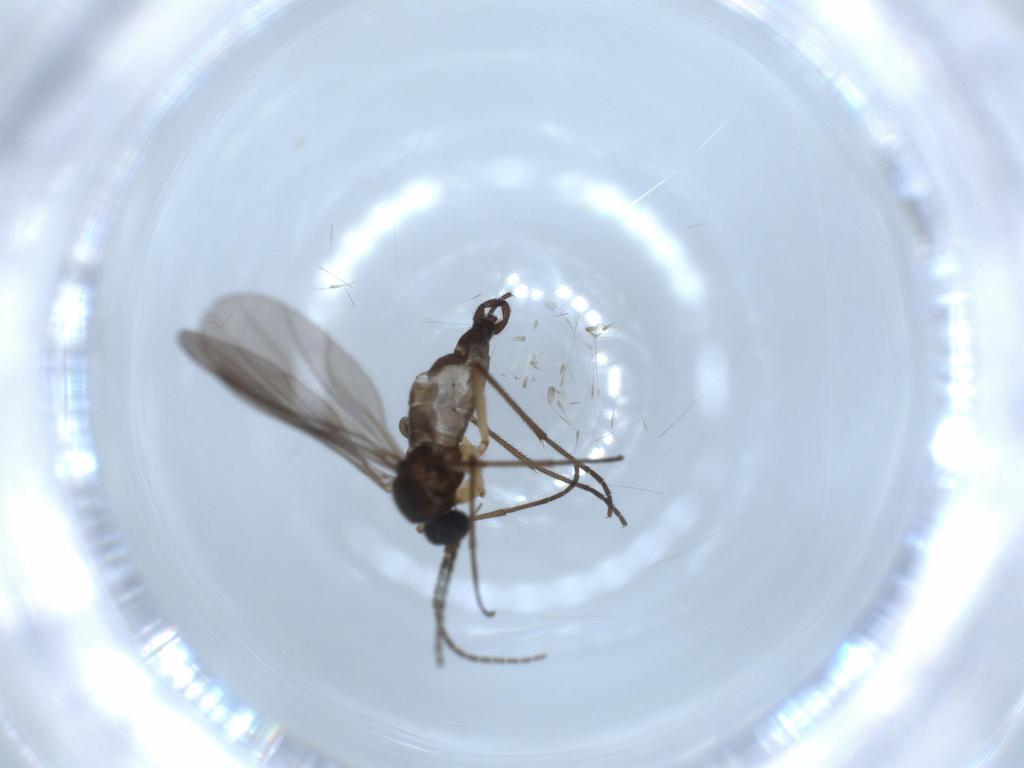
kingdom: Animalia
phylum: Arthropoda
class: Insecta
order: Diptera
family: Sciaridae
